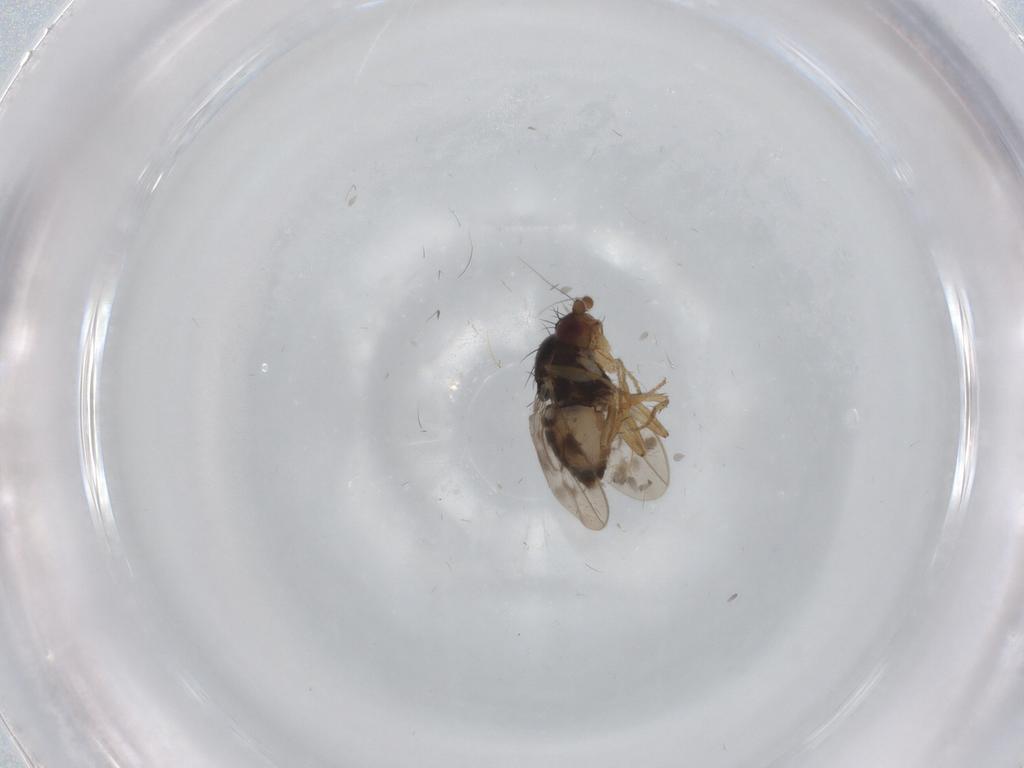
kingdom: Animalia
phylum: Arthropoda
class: Insecta
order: Diptera
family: Sphaeroceridae
